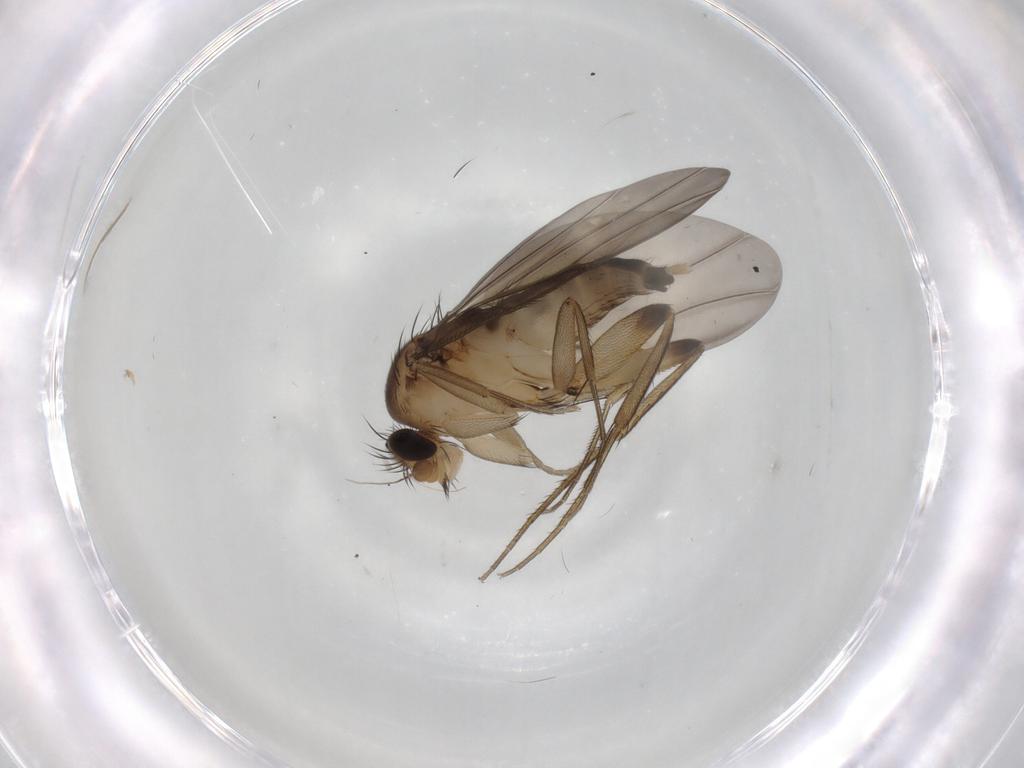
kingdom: Animalia
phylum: Arthropoda
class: Insecta
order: Diptera
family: Phoridae
